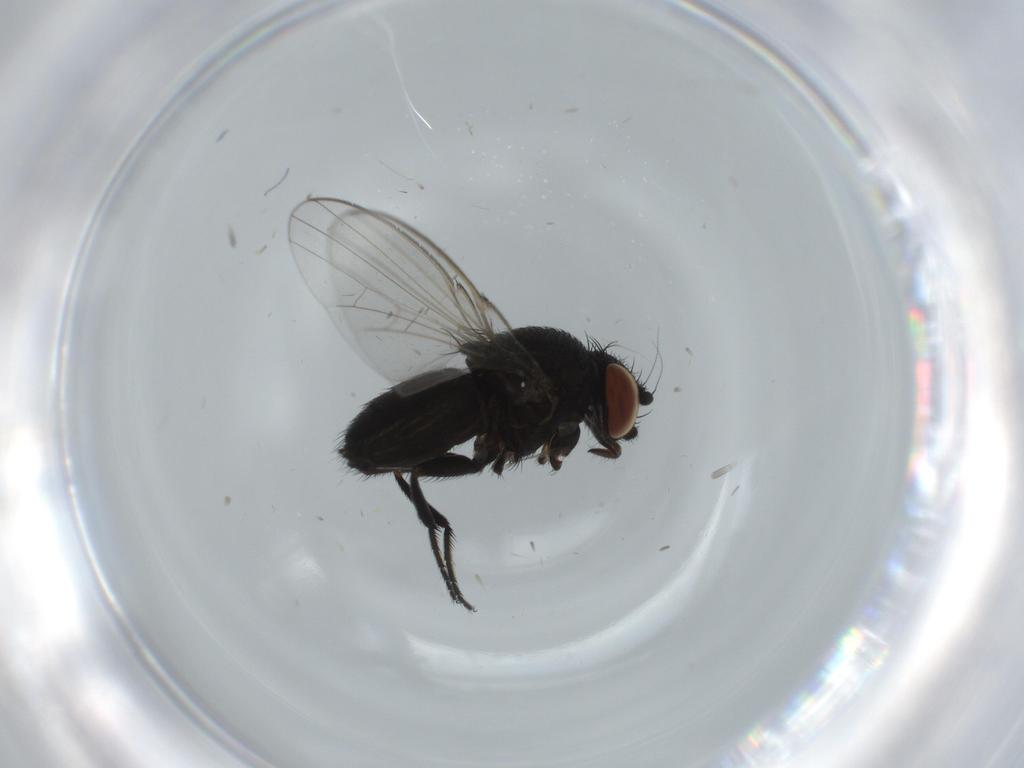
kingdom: Animalia
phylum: Arthropoda
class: Insecta
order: Diptera
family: Milichiidae
